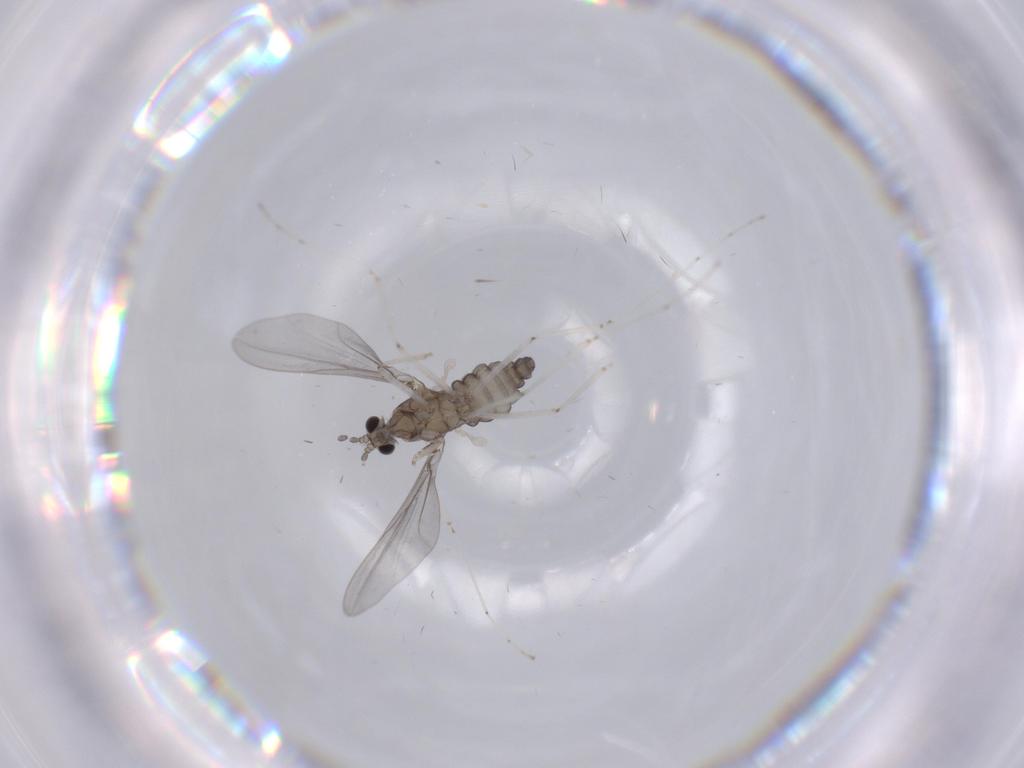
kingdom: Animalia
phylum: Arthropoda
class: Insecta
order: Diptera
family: Cecidomyiidae
